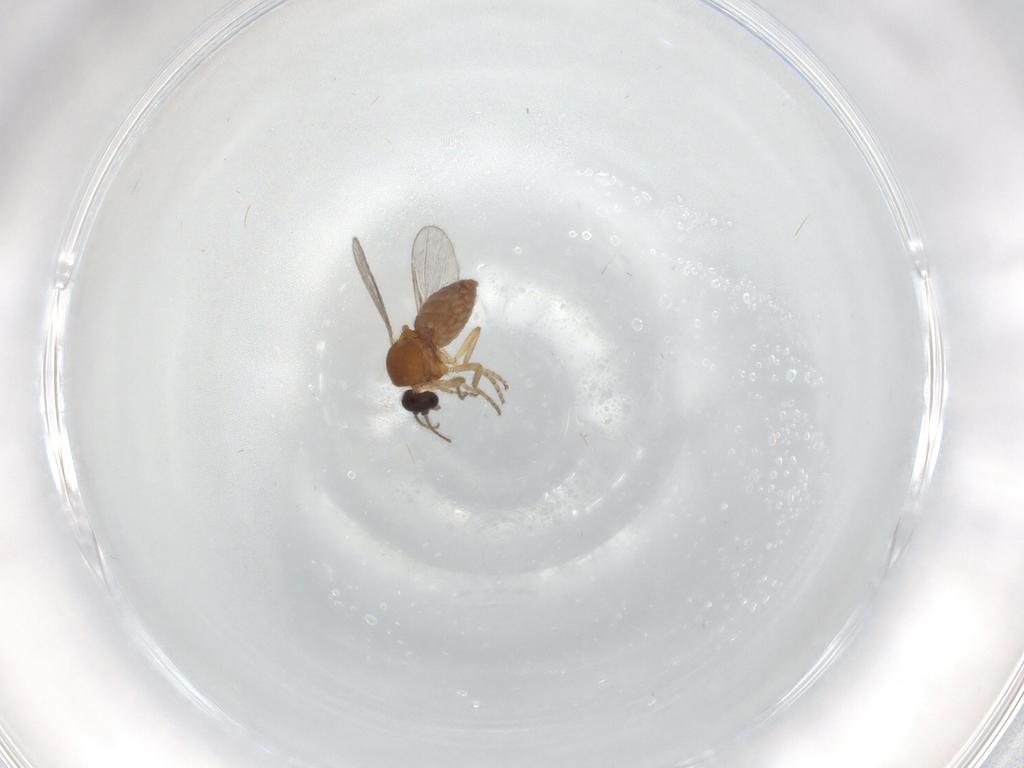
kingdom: Animalia
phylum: Arthropoda
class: Insecta
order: Diptera
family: Ceratopogonidae
